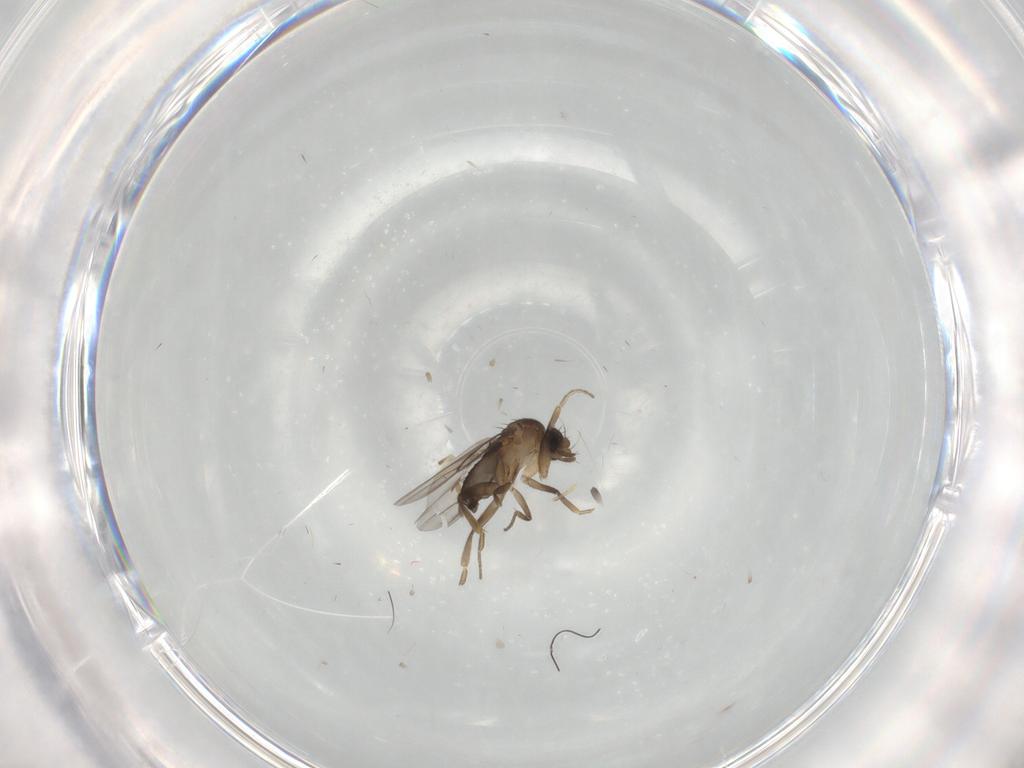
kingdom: Animalia
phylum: Arthropoda
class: Insecta
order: Diptera
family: Phoridae
